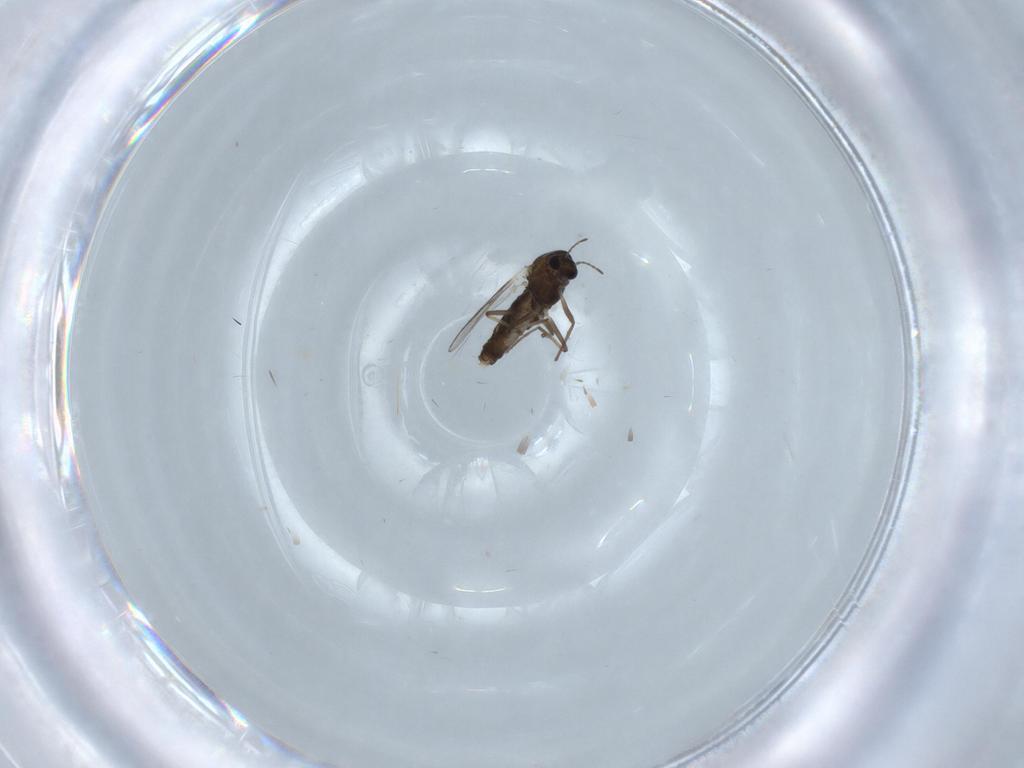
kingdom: Animalia
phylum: Arthropoda
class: Insecta
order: Diptera
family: Chironomidae
